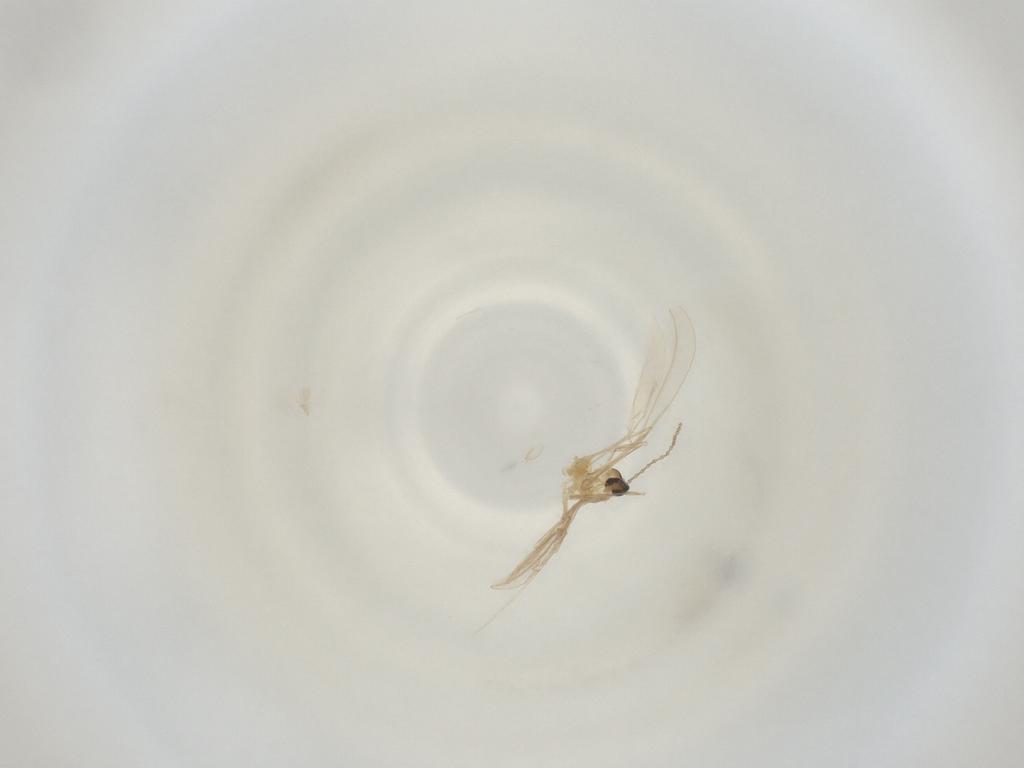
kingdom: Animalia
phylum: Arthropoda
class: Insecta
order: Diptera
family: Cecidomyiidae
